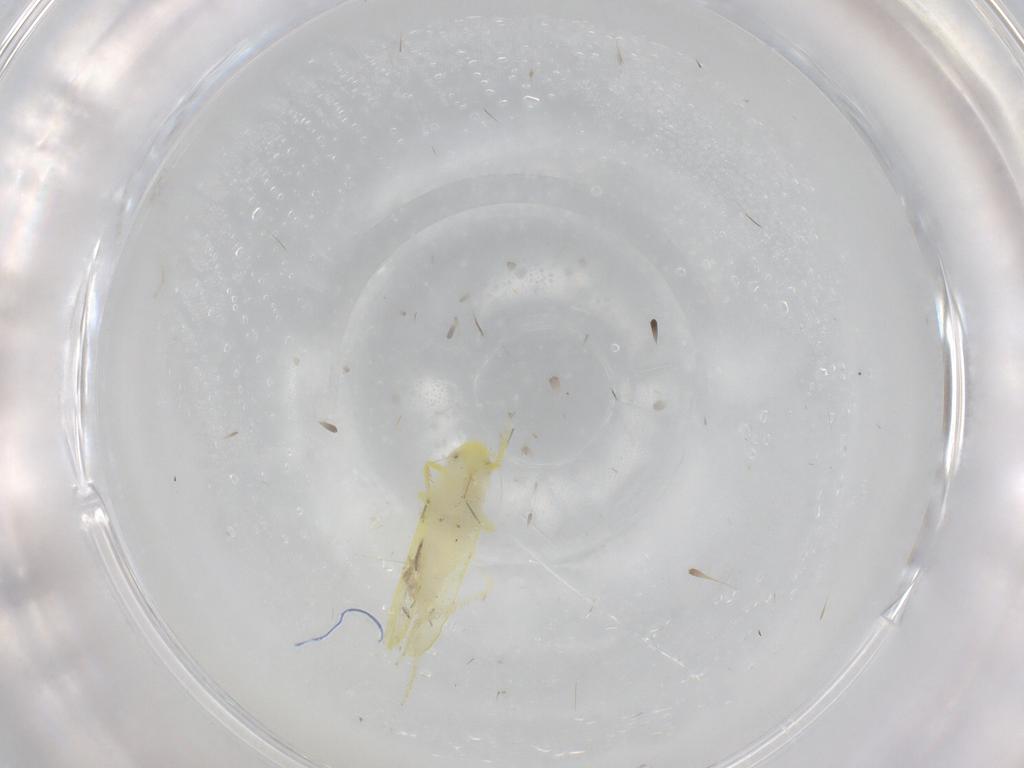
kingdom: Animalia
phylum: Arthropoda
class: Insecta
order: Hemiptera
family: Cicadellidae
